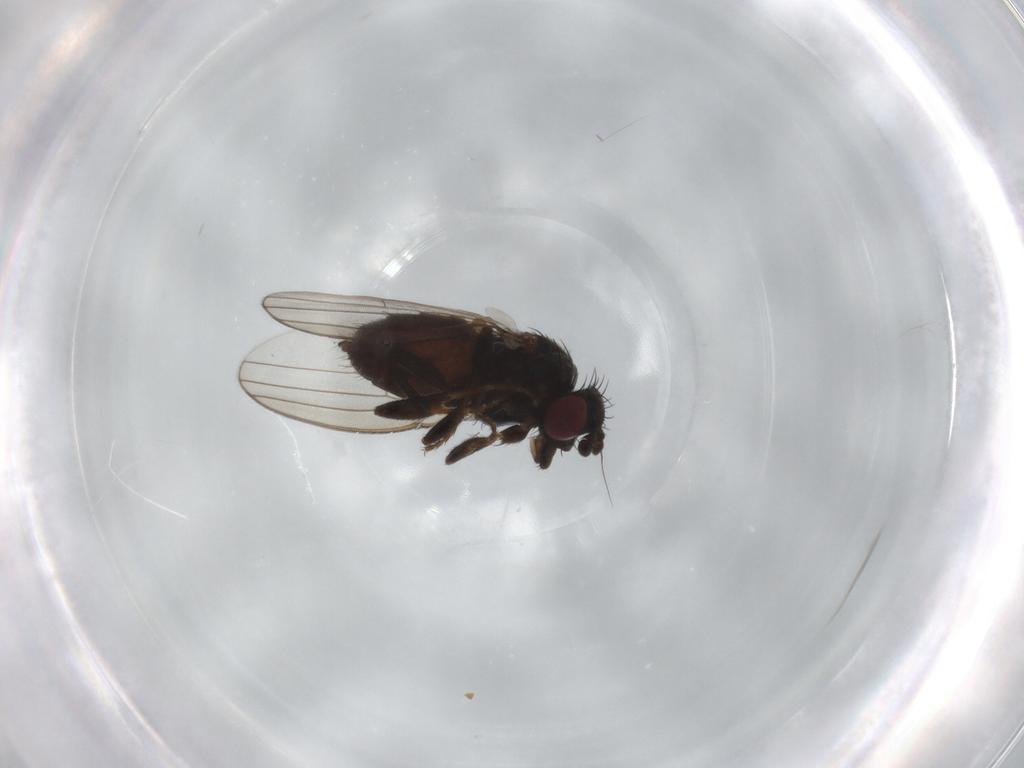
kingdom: Animalia
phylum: Arthropoda
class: Insecta
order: Diptera
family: Milichiidae
